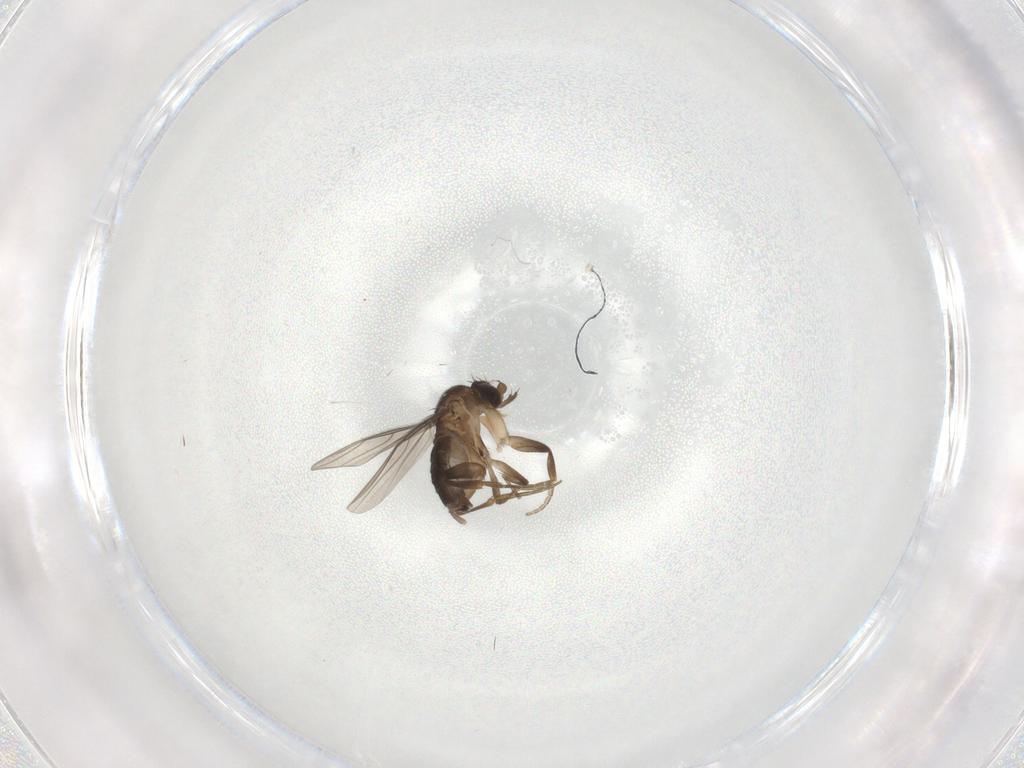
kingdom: Animalia
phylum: Arthropoda
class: Insecta
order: Diptera
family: Phoridae
